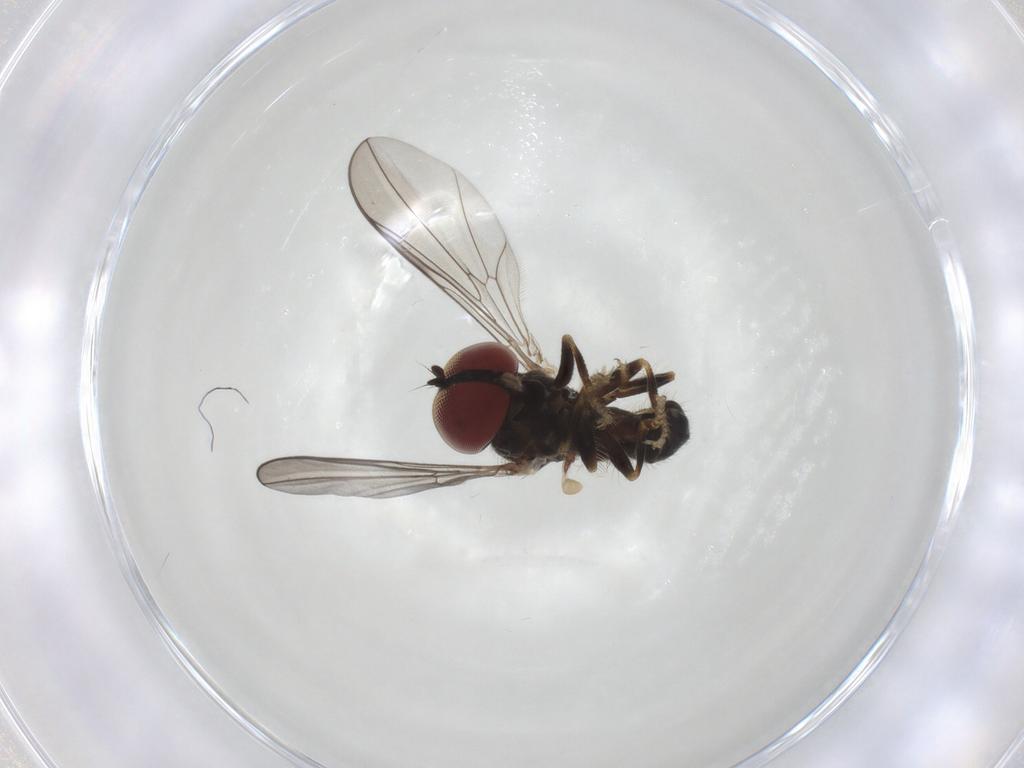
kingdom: Animalia
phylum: Arthropoda
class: Insecta
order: Diptera
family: Pipunculidae
